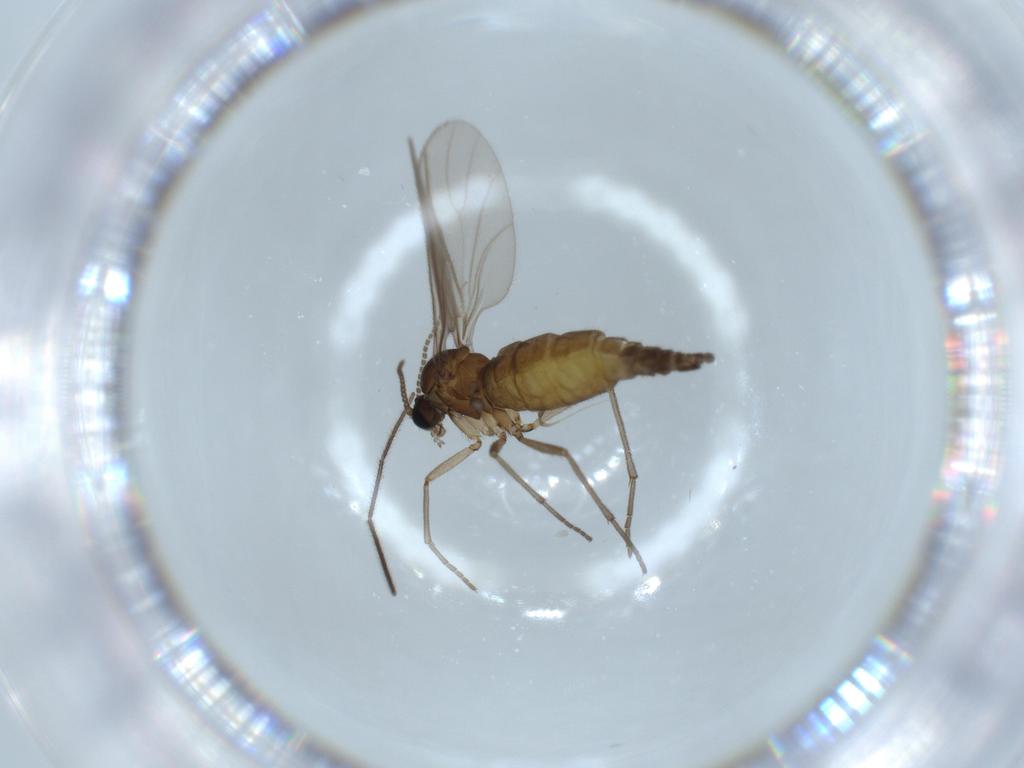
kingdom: Animalia
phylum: Arthropoda
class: Insecta
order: Diptera
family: Sciaridae
